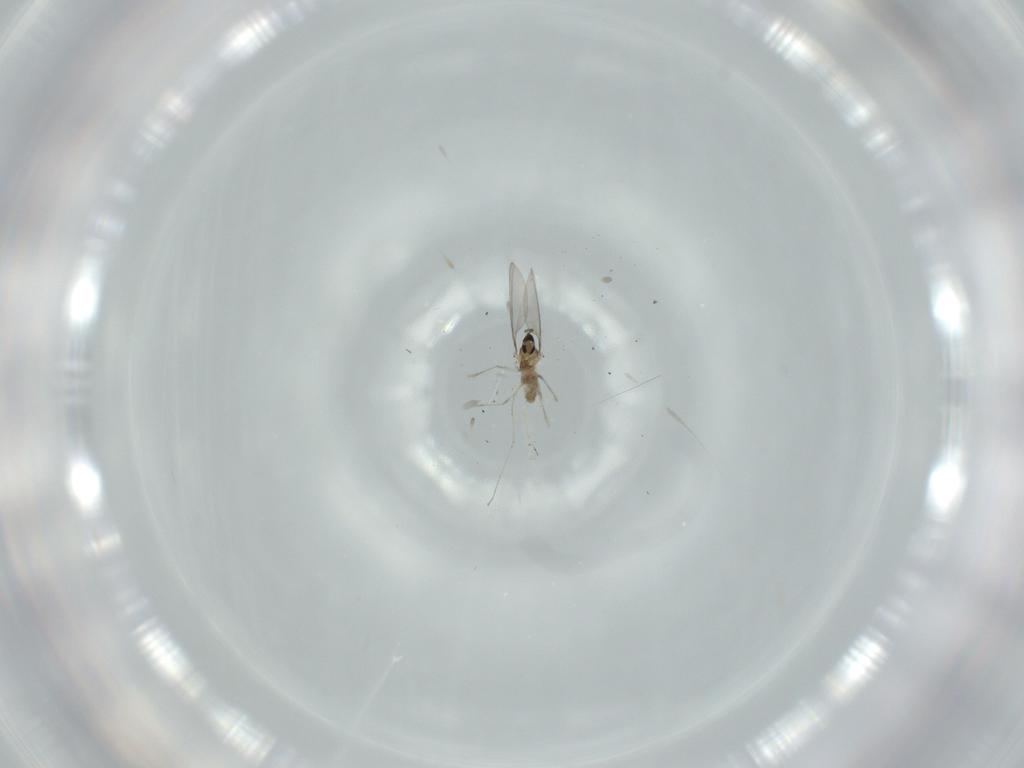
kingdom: Animalia
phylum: Arthropoda
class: Insecta
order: Diptera
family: Cecidomyiidae
